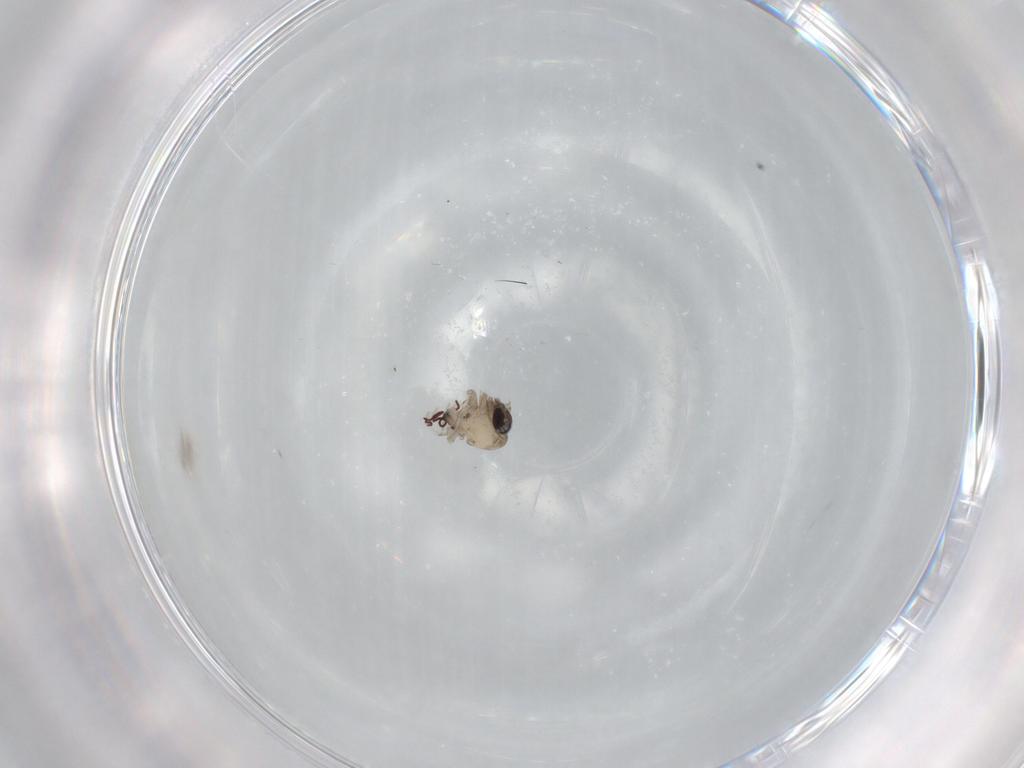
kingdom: Animalia
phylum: Arthropoda
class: Insecta
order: Diptera
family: Psychodidae
